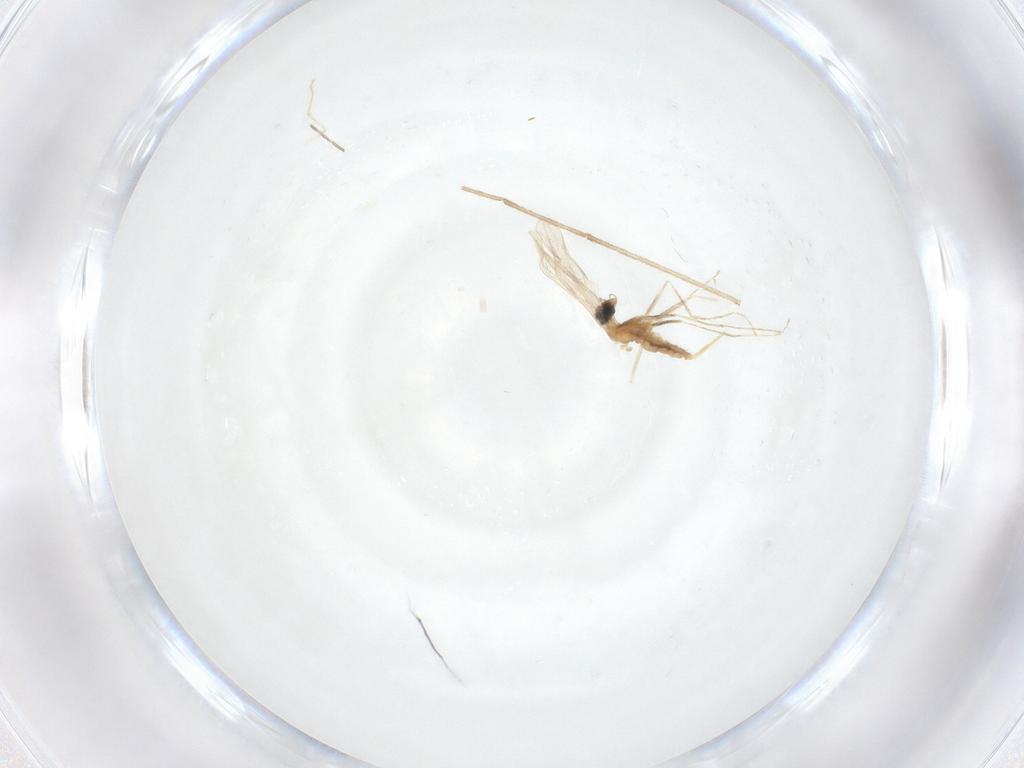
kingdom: Animalia
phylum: Arthropoda
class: Insecta
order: Diptera
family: Chironomidae
